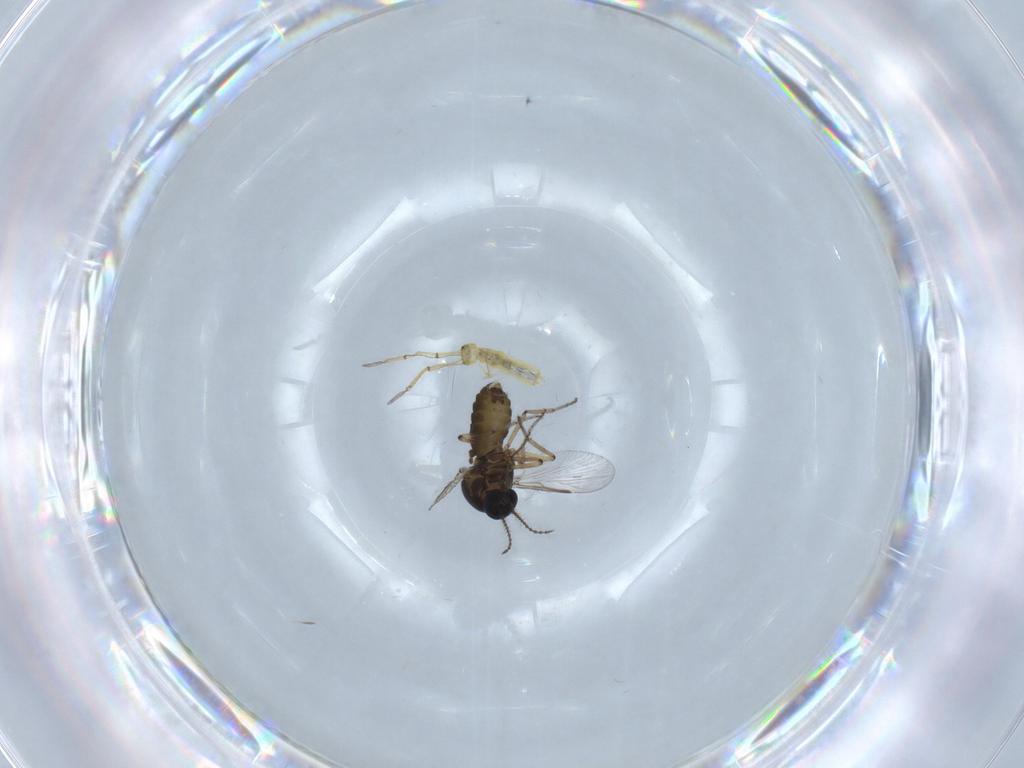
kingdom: Animalia
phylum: Arthropoda
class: Insecta
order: Diptera
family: Ceratopogonidae
